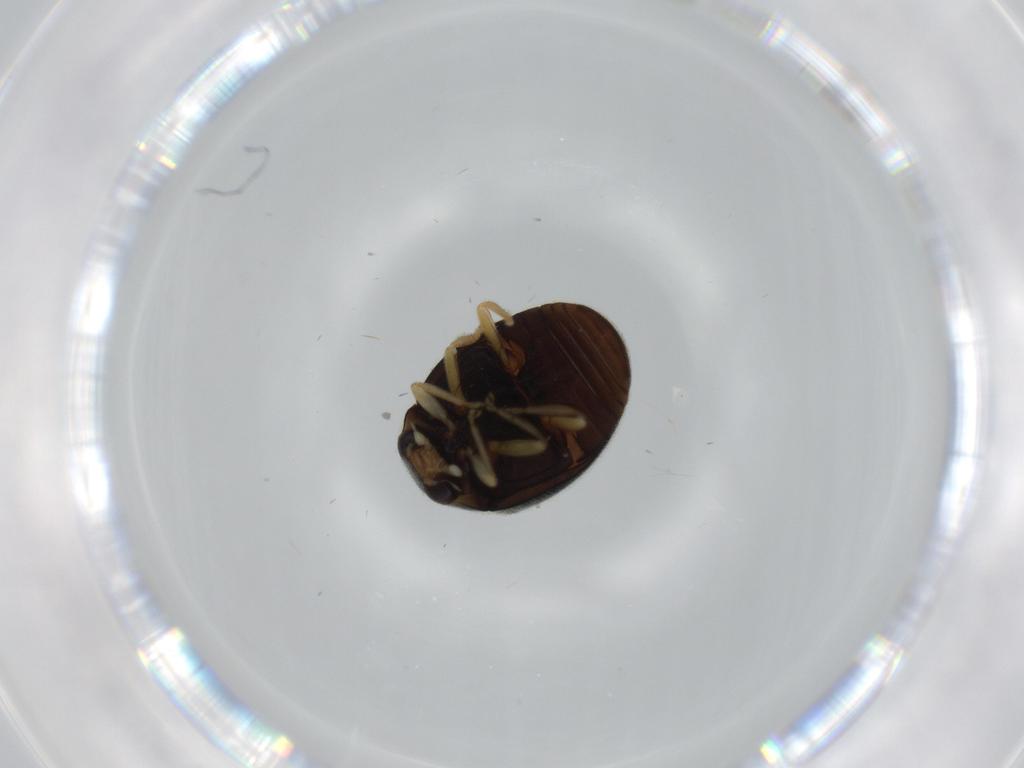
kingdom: Animalia
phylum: Arthropoda
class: Insecta
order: Coleoptera
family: Coccinellidae
